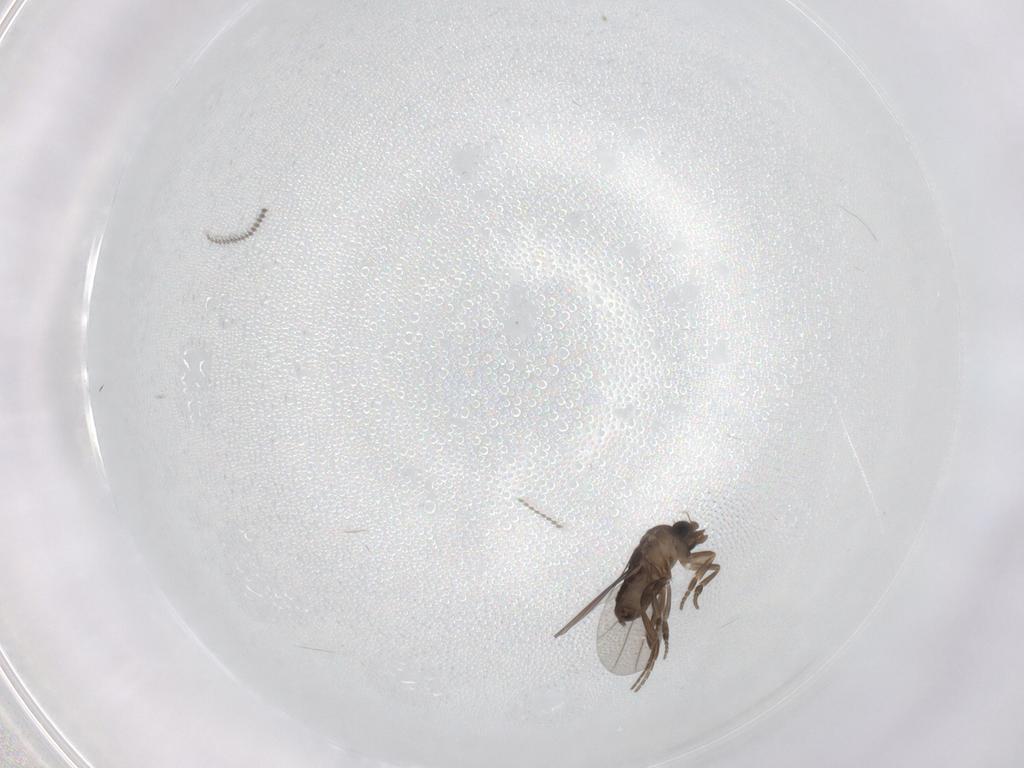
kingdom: Animalia
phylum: Arthropoda
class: Insecta
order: Diptera
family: Phoridae
